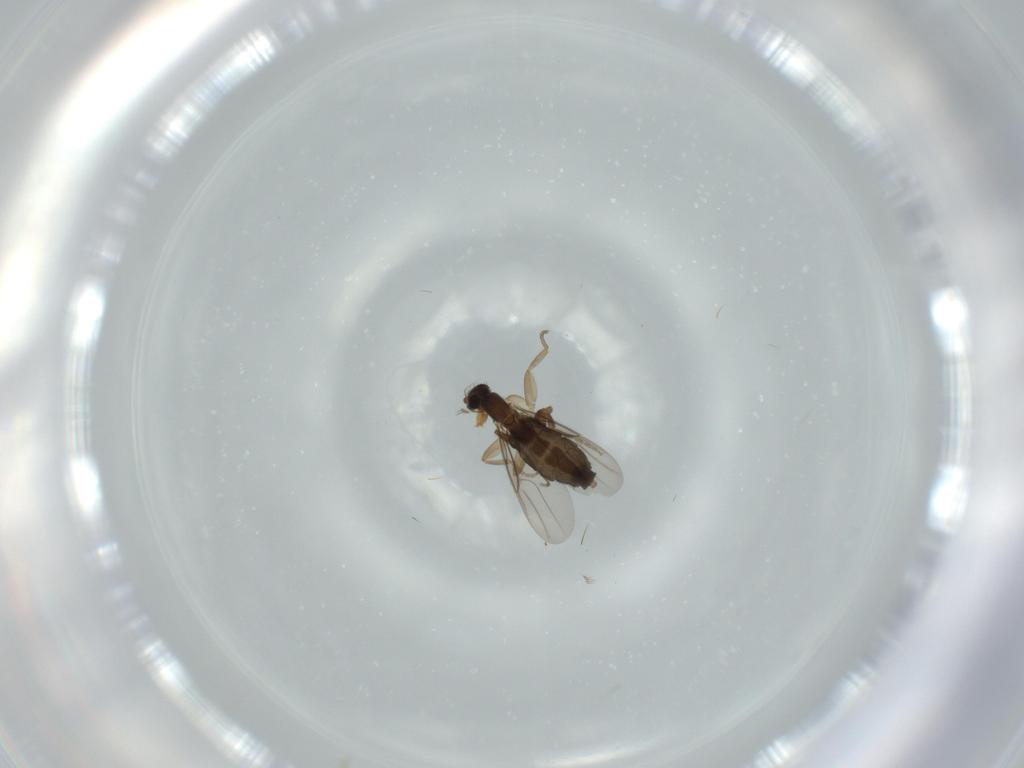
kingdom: Animalia
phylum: Arthropoda
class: Insecta
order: Diptera
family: Phoridae
